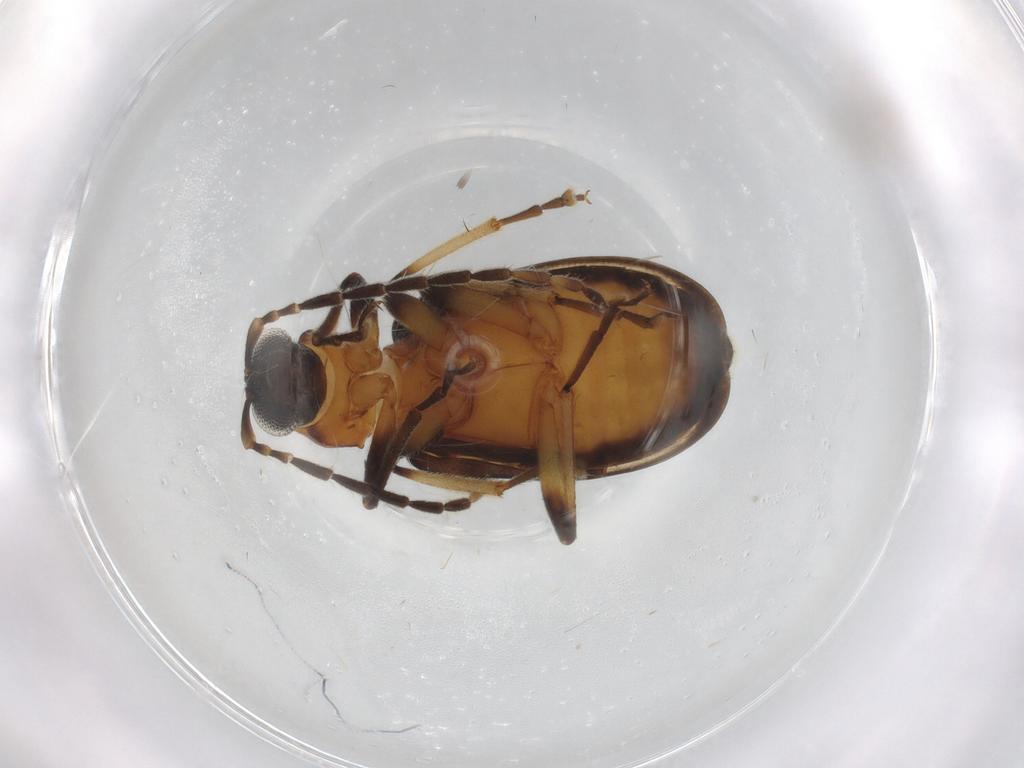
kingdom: Animalia
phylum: Arthropoda
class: Insecta
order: Coleoptera
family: Chrysomelidae
